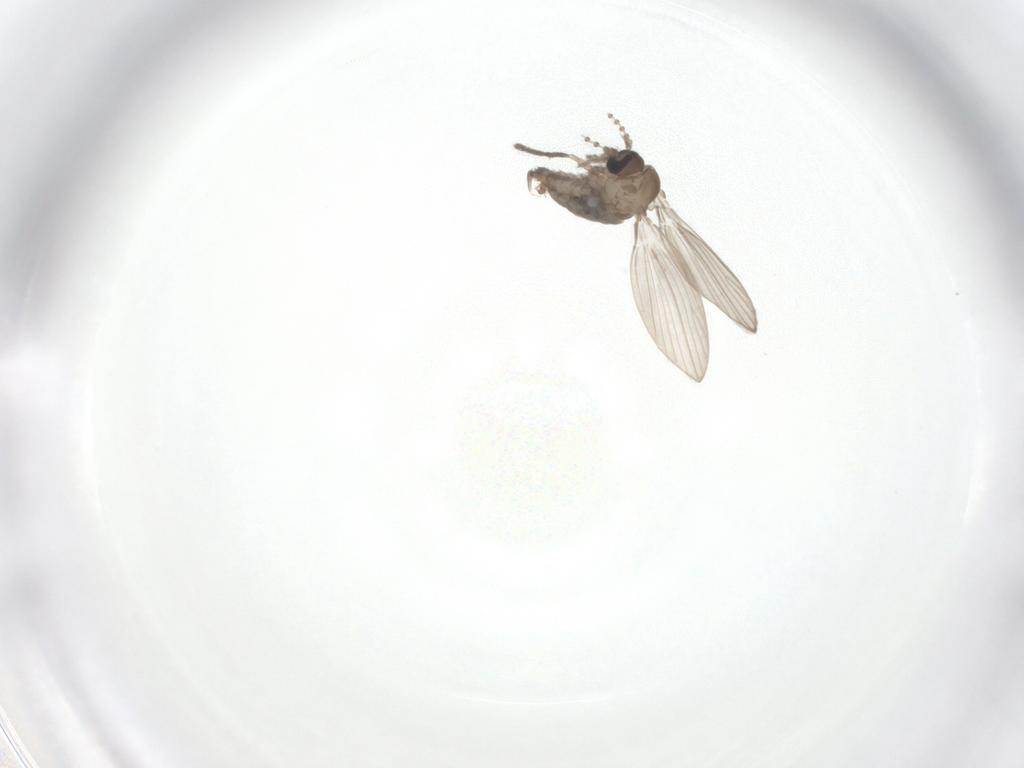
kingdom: Animalia
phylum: Arthropoda
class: Insecta
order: Diptera
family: Psychodidae
